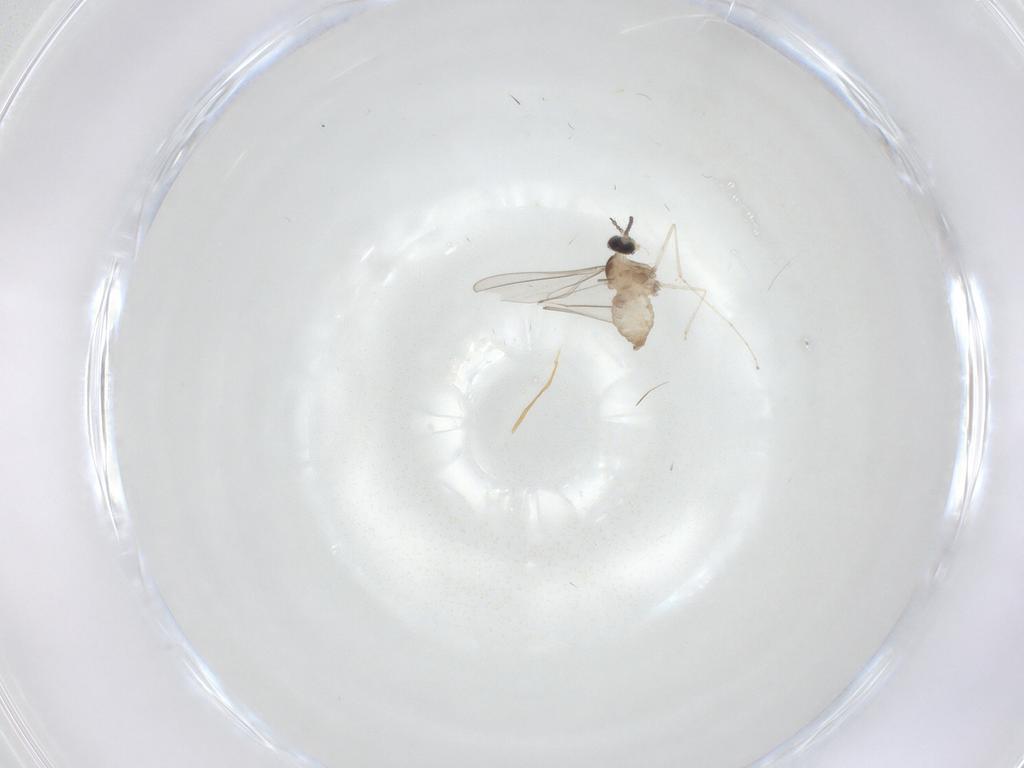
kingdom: Animalia
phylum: Arthropoda
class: Insecta
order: Diptera
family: Cecidomyiidae
